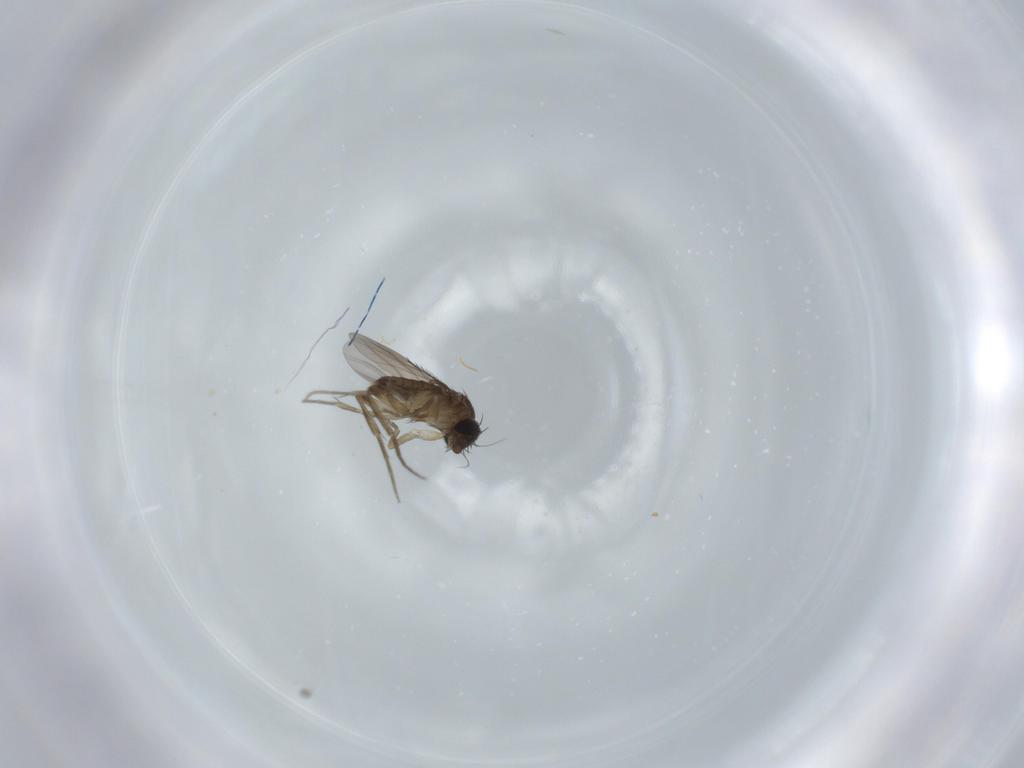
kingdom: Animalia
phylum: Arthropoda
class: Insecta
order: Diptera
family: Phoridae
